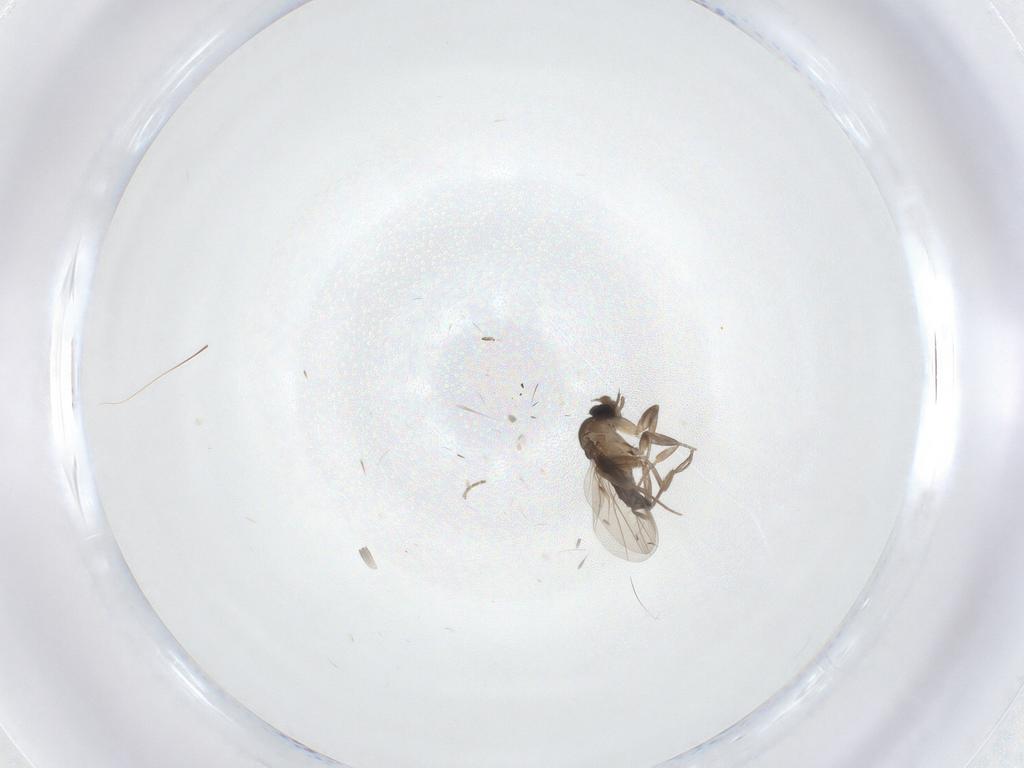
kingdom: Animalia
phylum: Arthropoda
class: Insecta
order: Diptera
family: Phoridae
